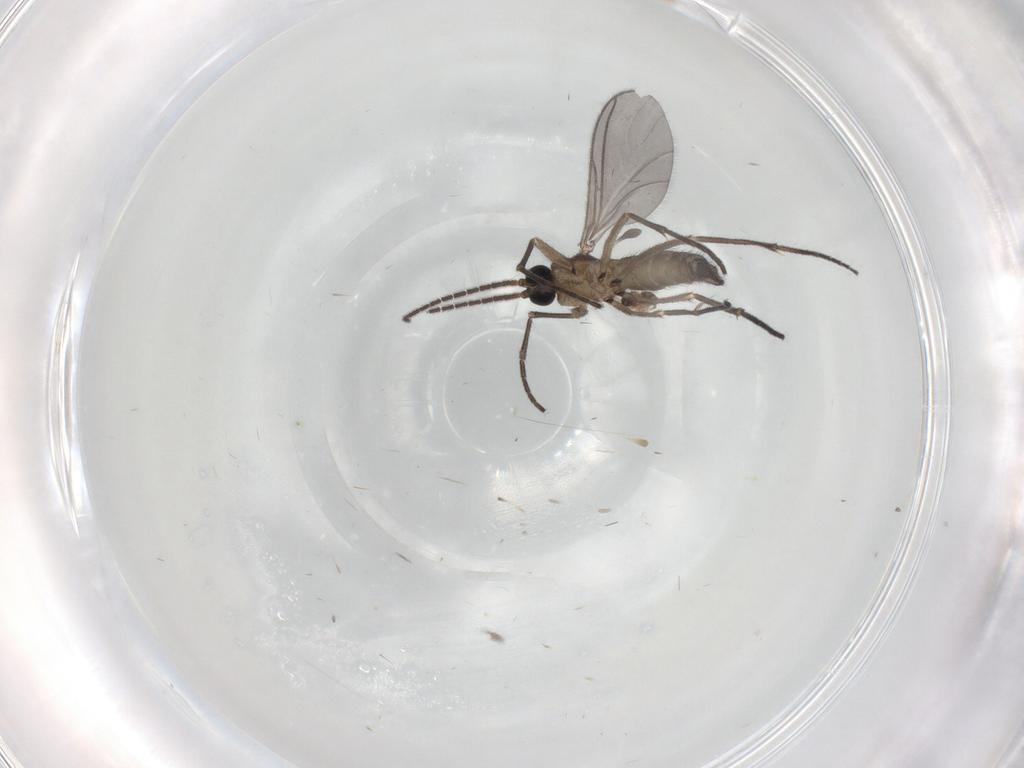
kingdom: Animalia
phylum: Arthropoda
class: Insecta
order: Diptera
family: Sciaridae
